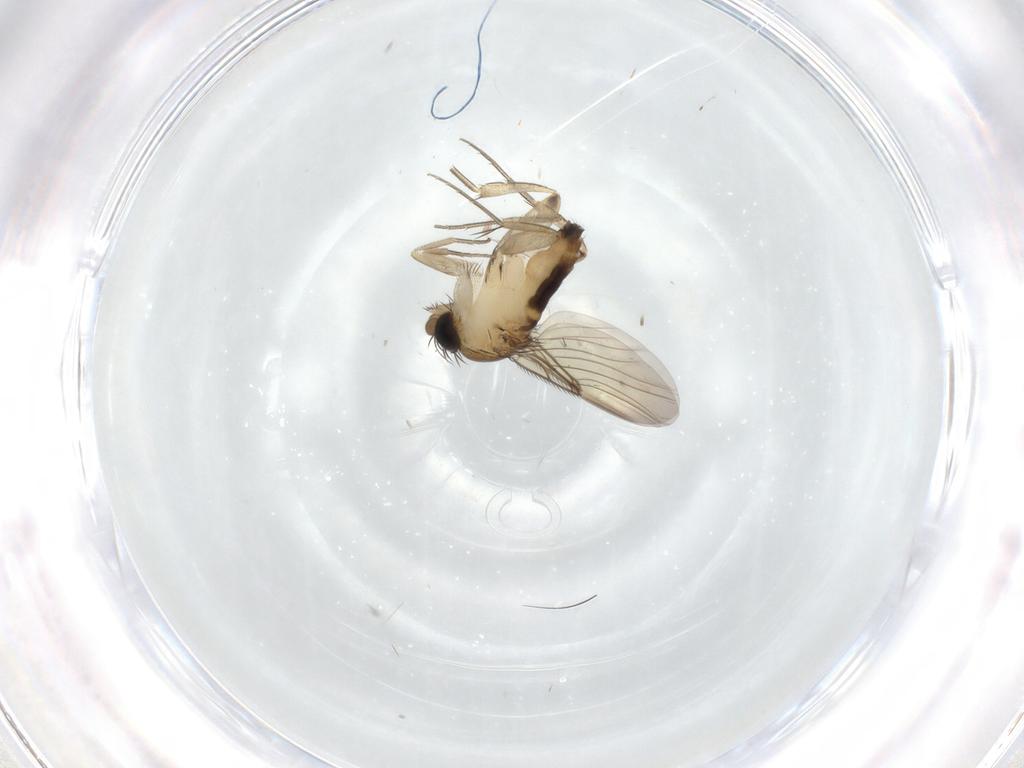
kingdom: Animalia
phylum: Arthropoda
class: Insecta
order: Diptera
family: Phoridae
